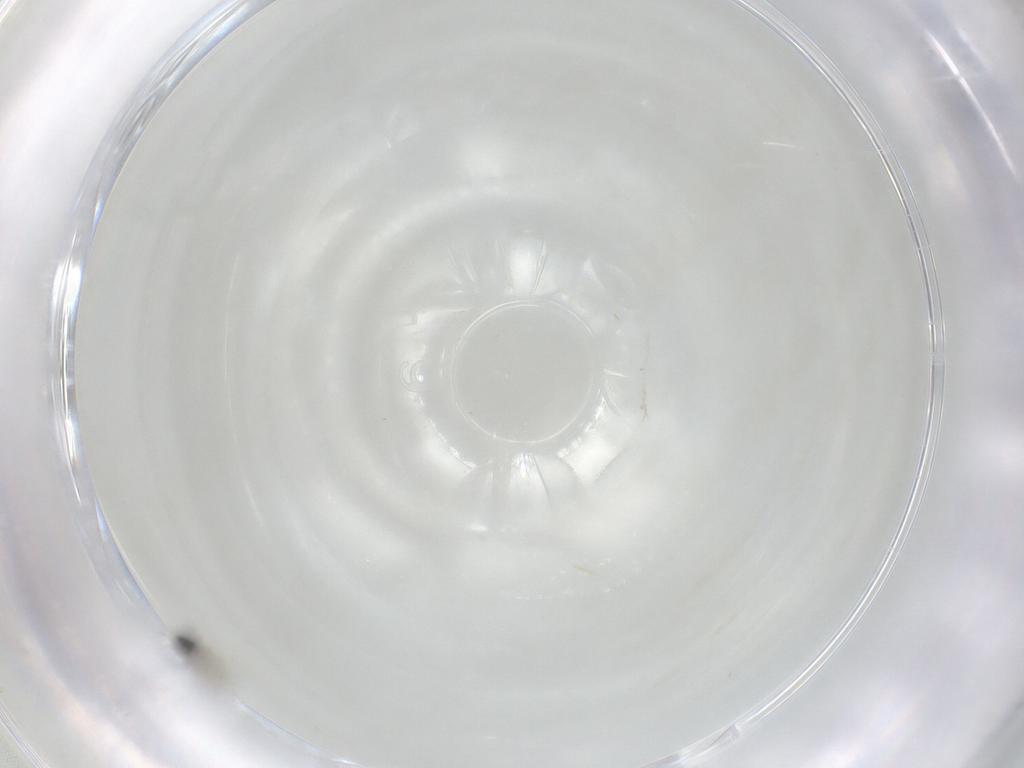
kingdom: Animalia
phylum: Arthropoda
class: Insecta
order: Diptera
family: Cecidomyiidae
